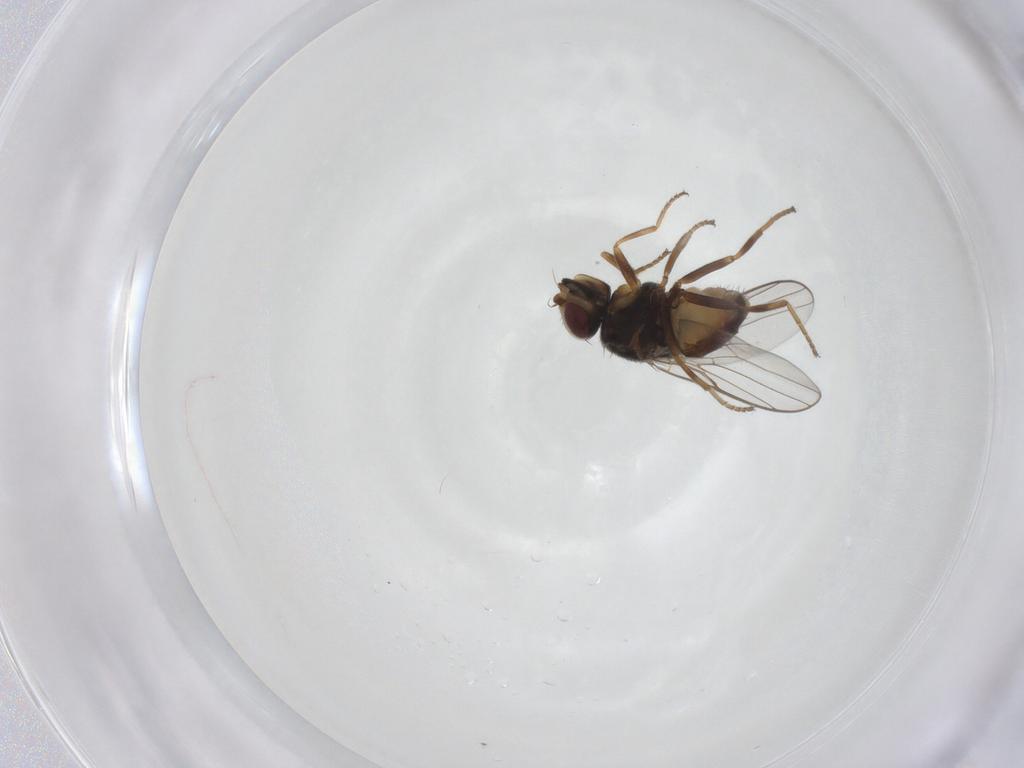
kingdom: Animalia
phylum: Arthropoda
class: Insecta
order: Diptera
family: Chloropidae
